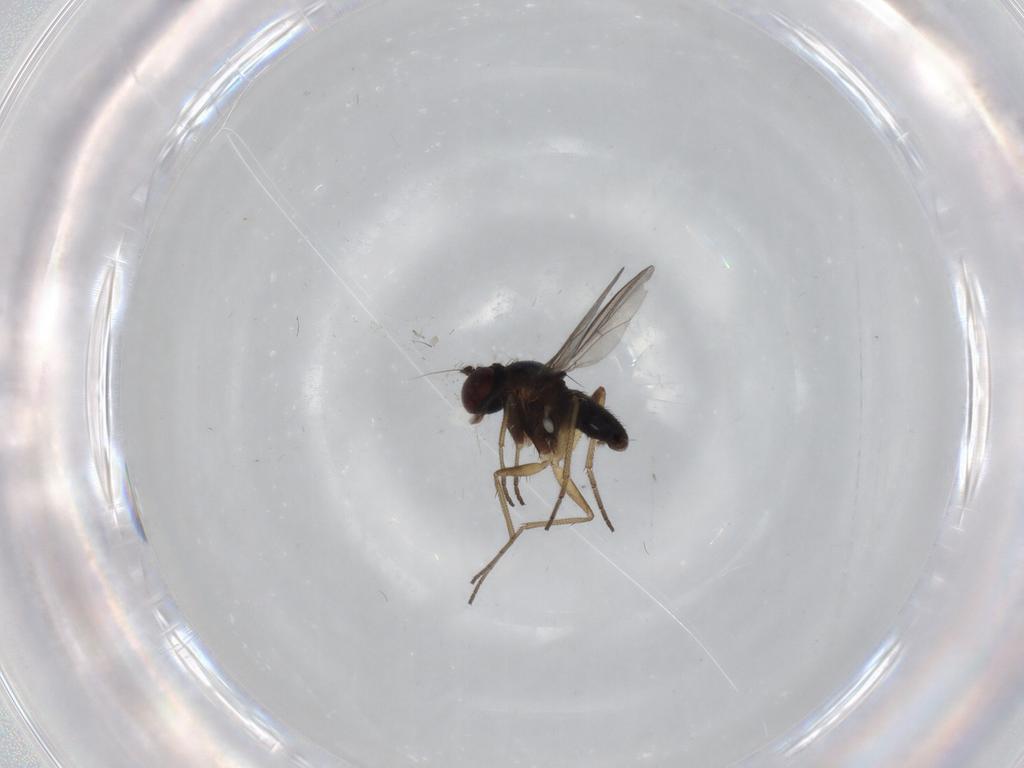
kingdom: Animalia
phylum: Arthropoda
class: Insecta
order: Diptera
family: Dolichopodidae
